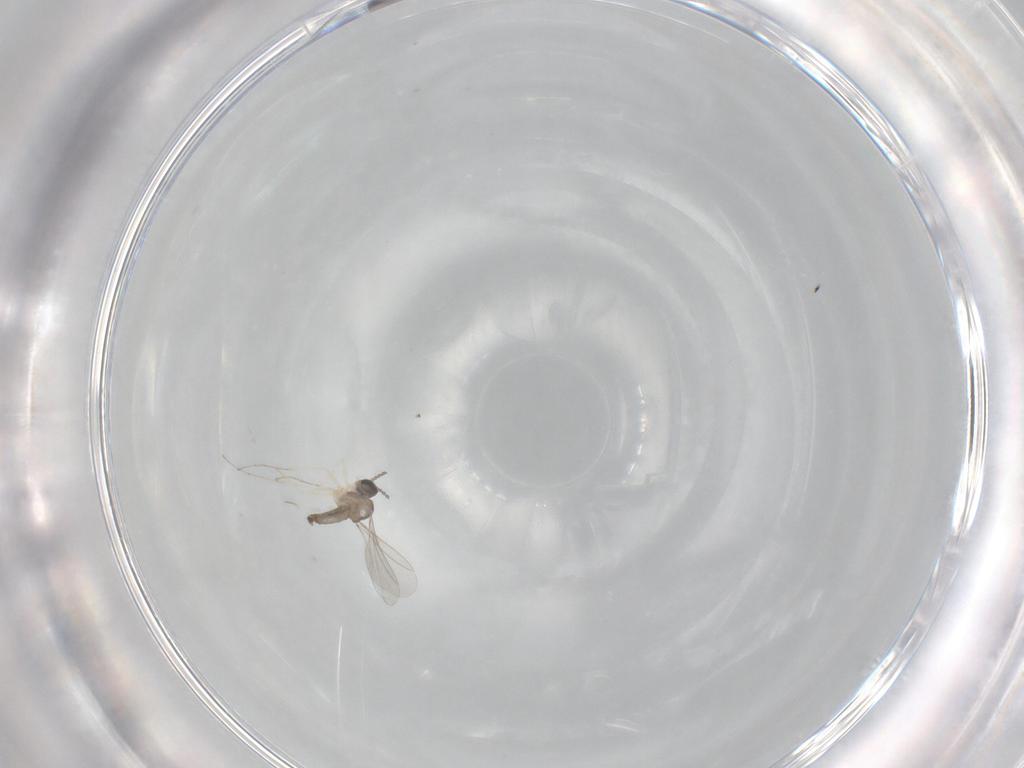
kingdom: Animalia
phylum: Arthropoda
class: Insecta
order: Diptera
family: Cecidomyiidae
